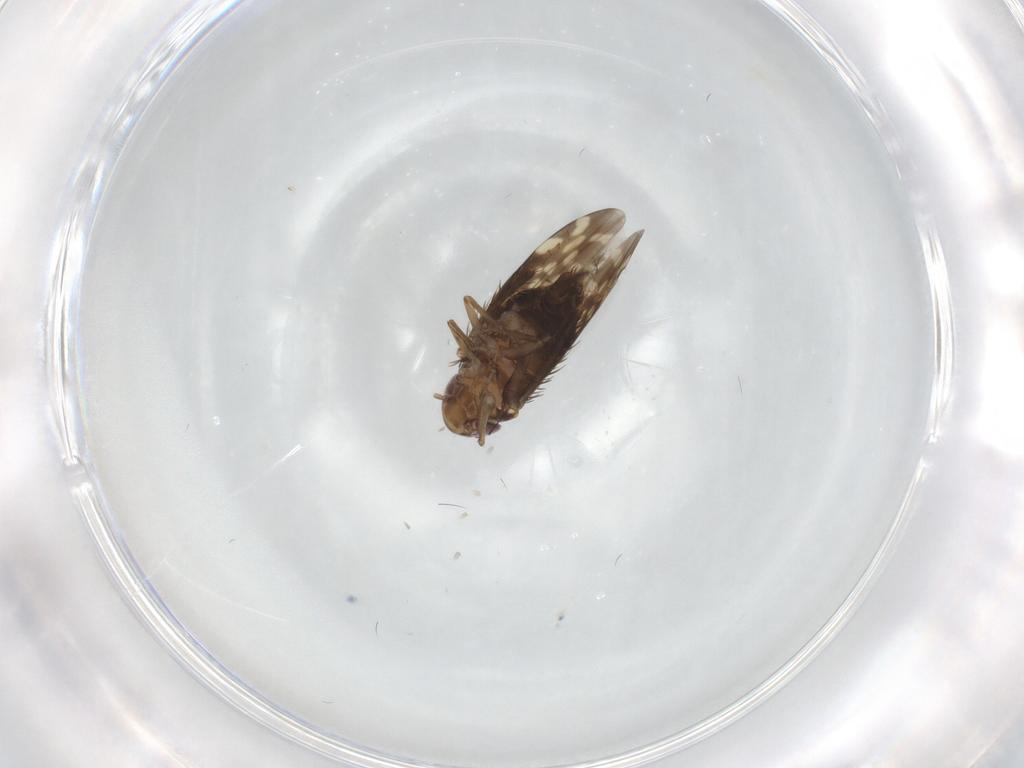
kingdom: Animalia
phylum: Arthropoda
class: Insecta
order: Hemiptera
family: Cicadellidae
